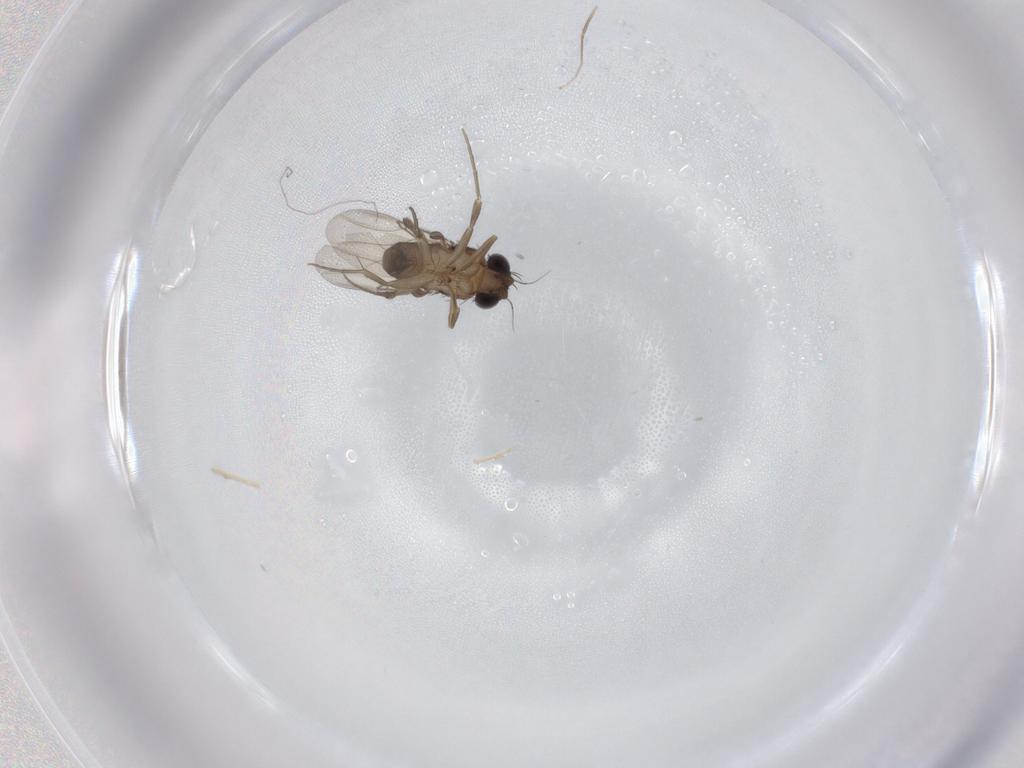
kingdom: Animalia
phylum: Arthropoda
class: Insecta
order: Diptera
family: Phoridae
